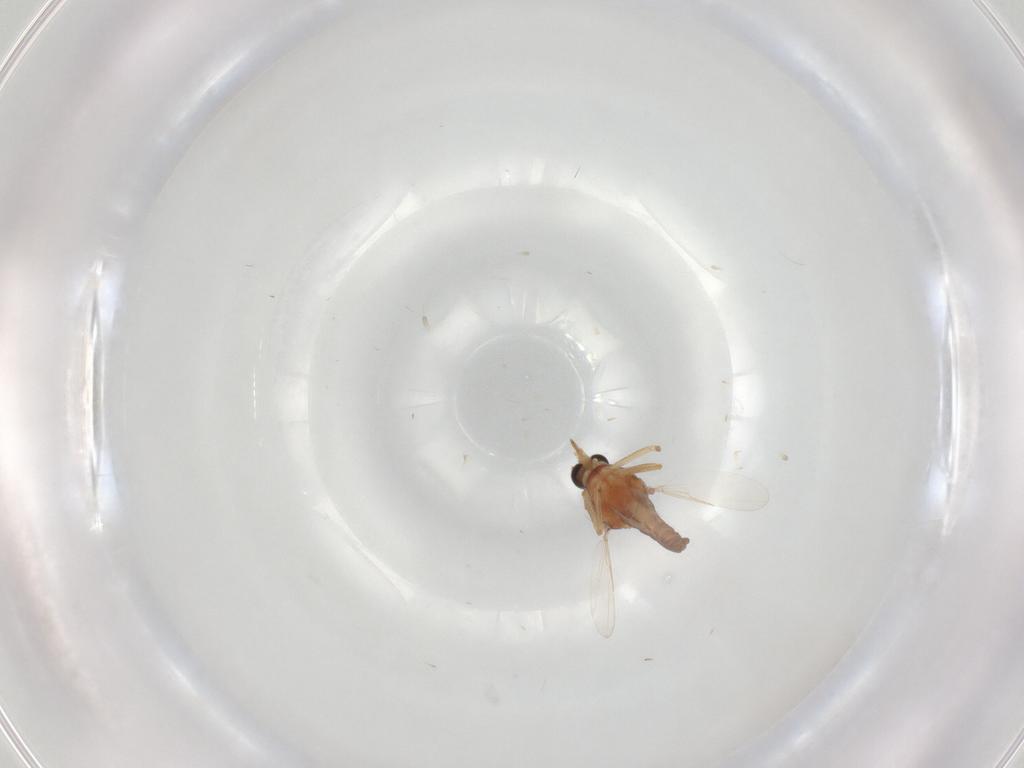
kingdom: Animalia
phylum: Arthropoda
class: Insecta
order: Diptera
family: Ceratopogonidae
